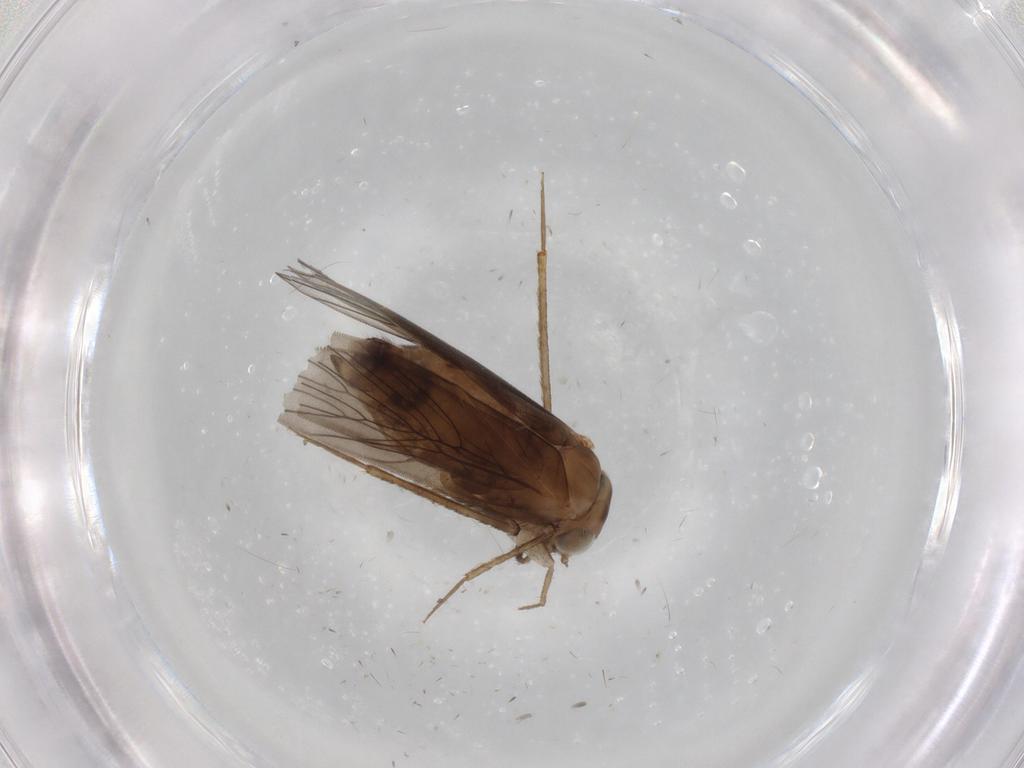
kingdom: Animalia
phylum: Arthropoda
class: Insecta
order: Psocodea
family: Lepidopsocidae
